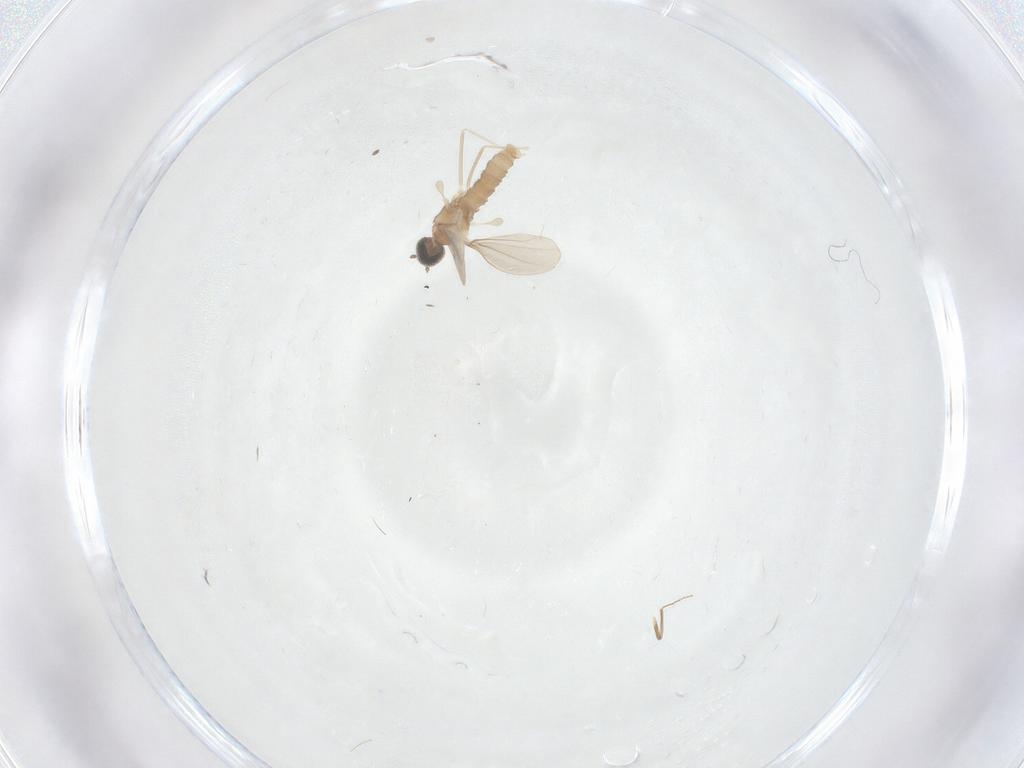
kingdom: Animalia
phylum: Arthropoda
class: Insecta
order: Diptera
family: Cecidomyiidae
